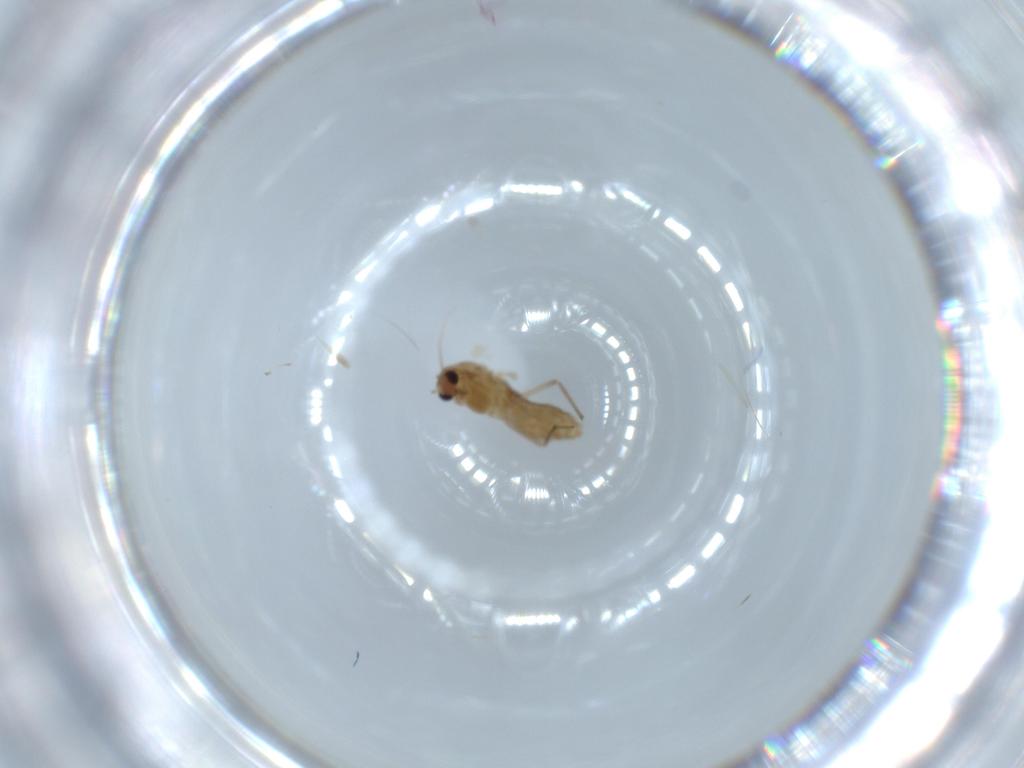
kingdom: Animalia
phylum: Arthropoda
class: Insecta
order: Diptera
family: Chironomidae
